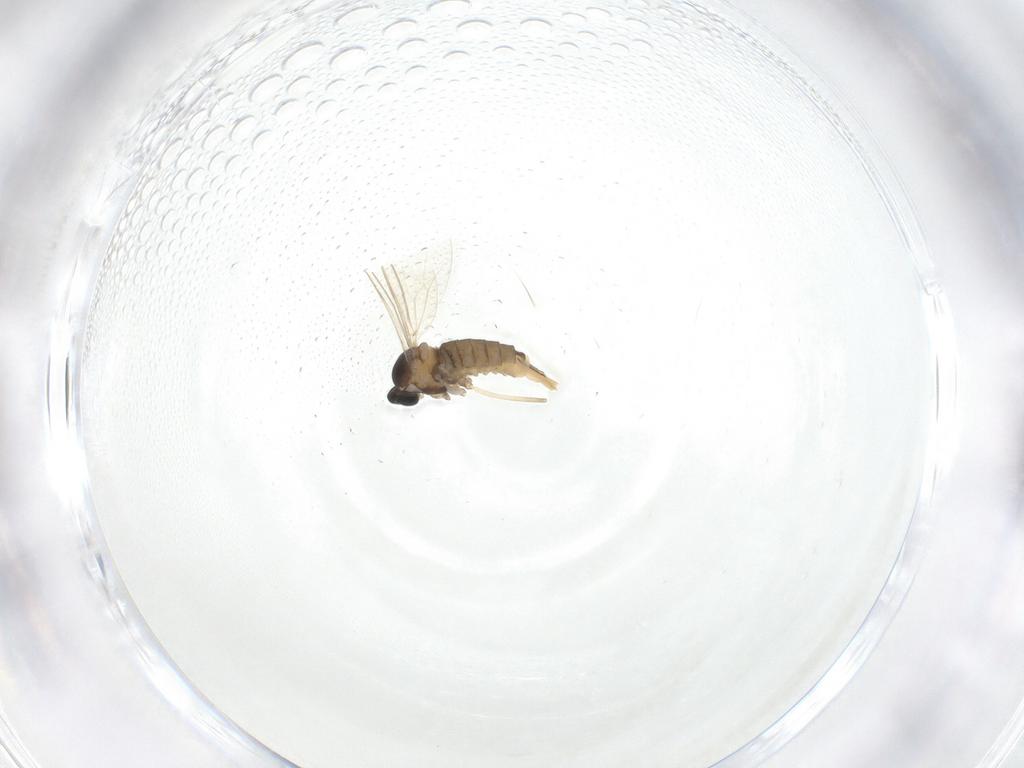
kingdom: Animalia
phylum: Arthropoda
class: Insecta
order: Diptera
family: Cecidomyiidae
